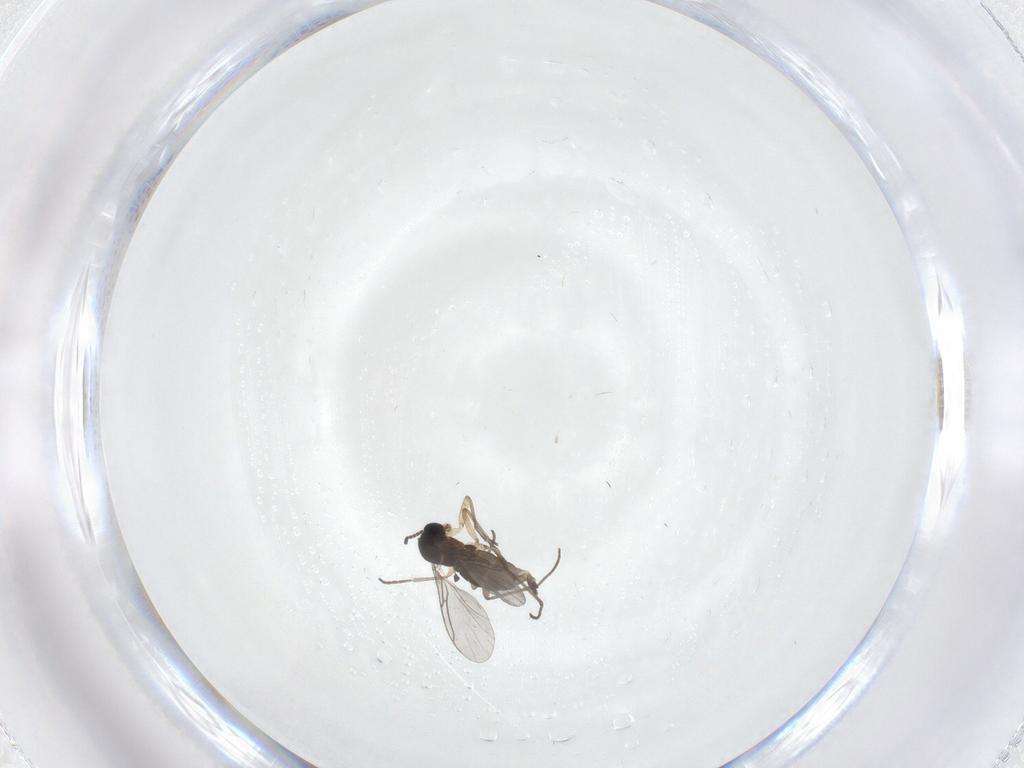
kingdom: Animalia
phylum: Arthropoda
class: Insecta
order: Diptera
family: Sciaridae
